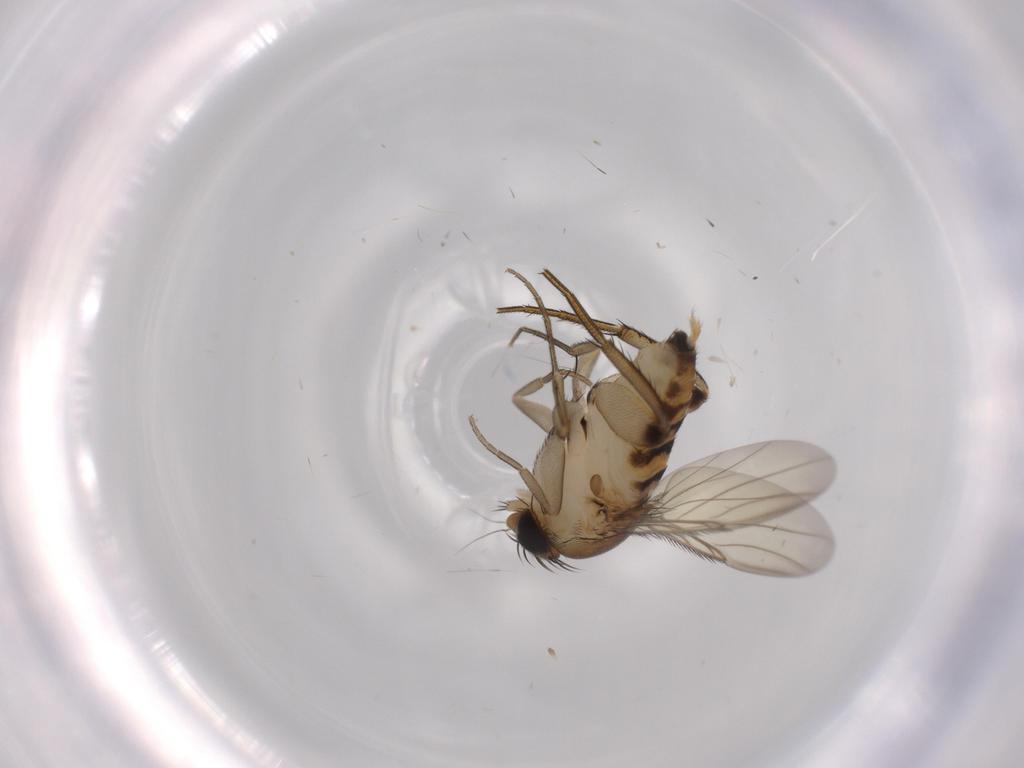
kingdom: Animalia
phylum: Arthropoda
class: Insecta
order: Diptera
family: Phoridae
